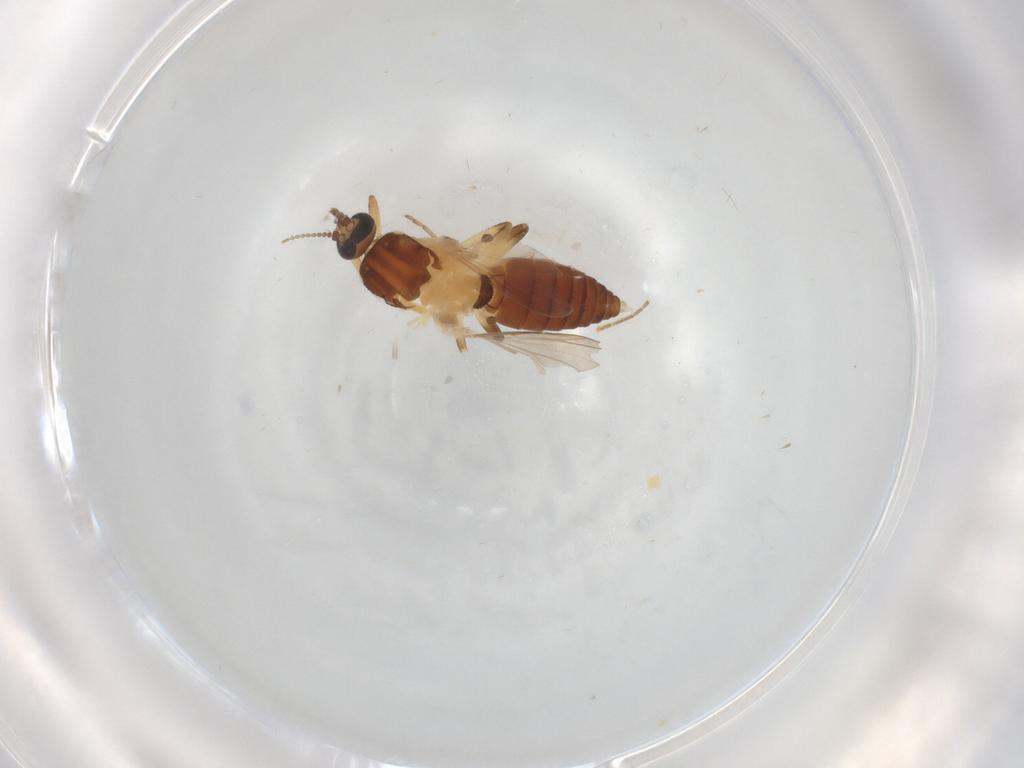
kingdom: Animalia
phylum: Arthropoda
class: Insecta
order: Diptera
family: Ceratopogonidae
